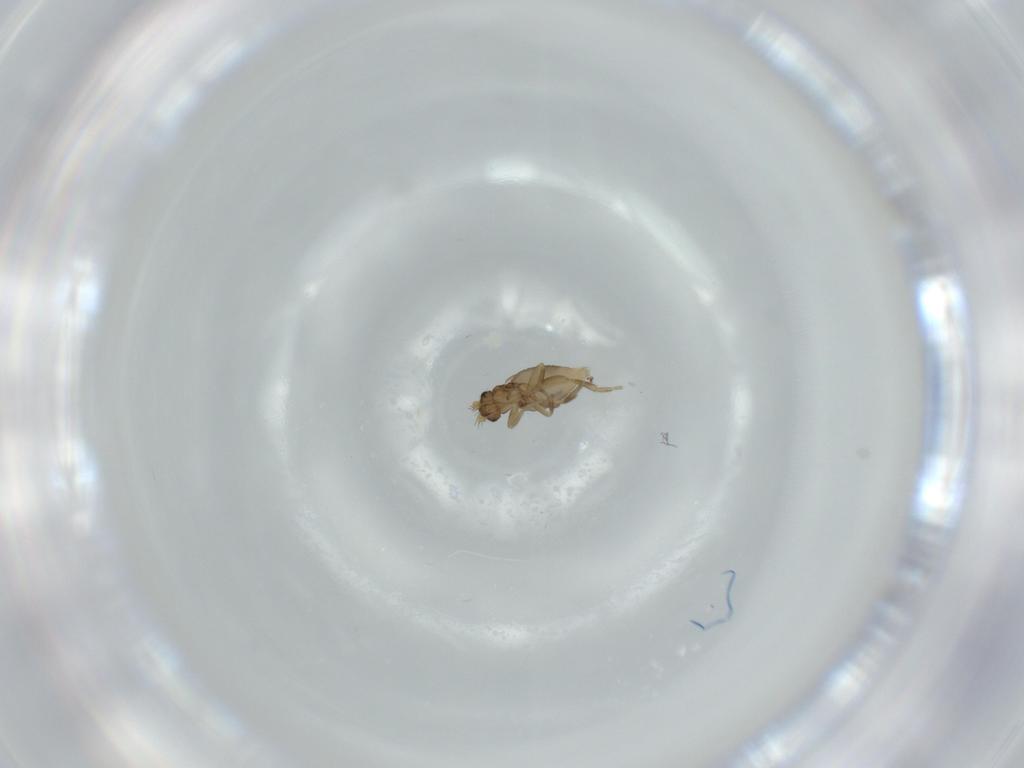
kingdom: Animalia
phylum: Arthropoda
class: Insecta
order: Diptera
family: Phoridae
